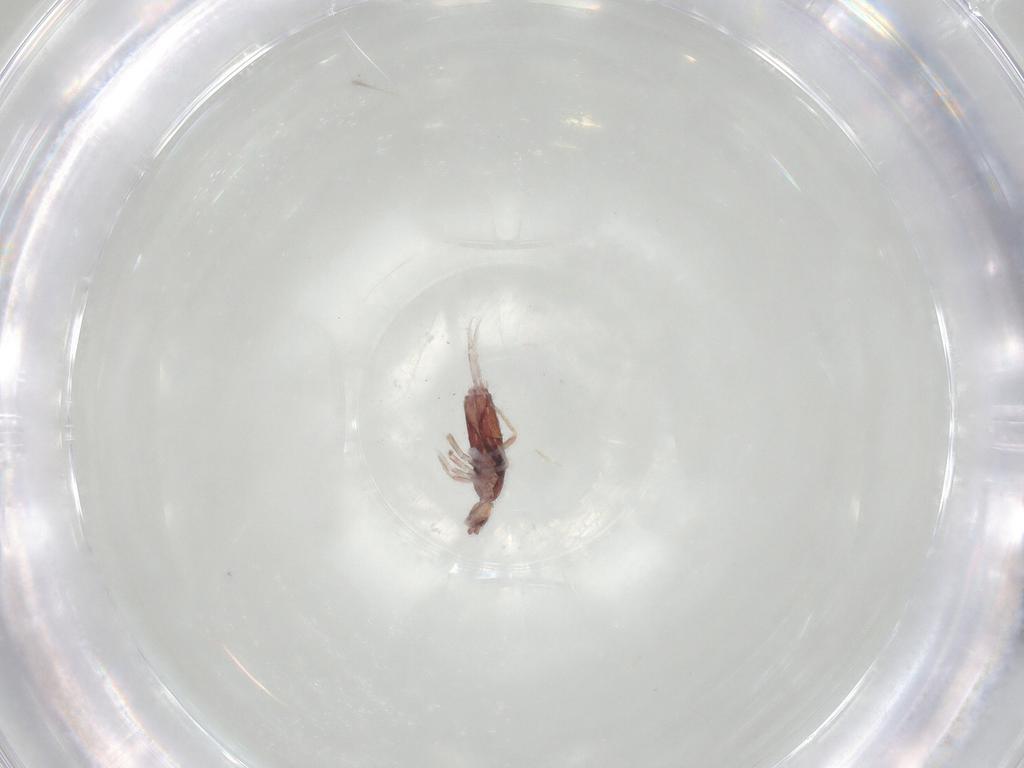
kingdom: Animalia
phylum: Arthropoda
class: Collembola
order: Entomobryomorpha
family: Entomobryidae
